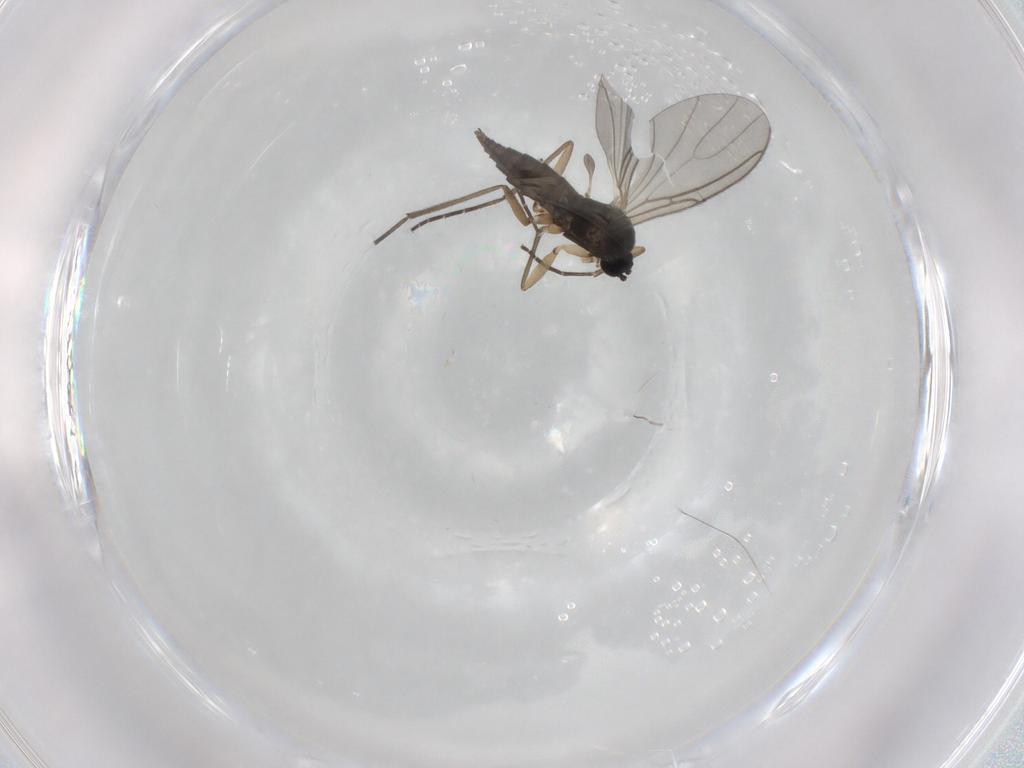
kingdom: Animalia
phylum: Arthropoda
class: Insecta
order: Diptera
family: Sciaridae
